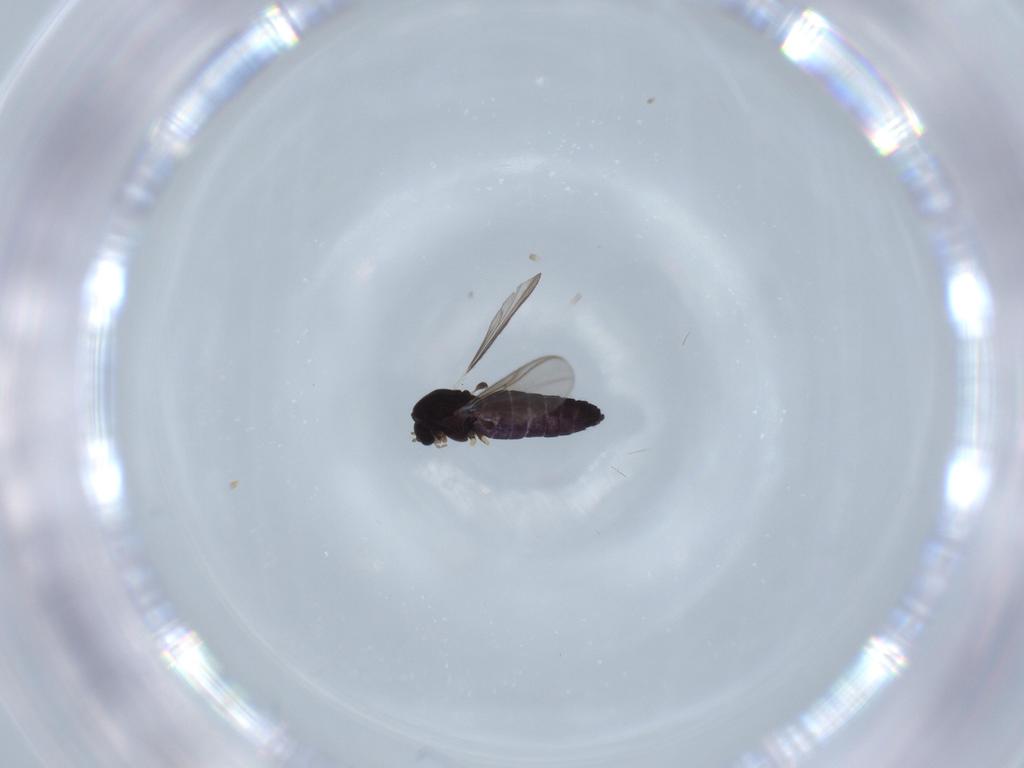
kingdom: Animalia
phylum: Arthropoda
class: Insecta
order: Diptera
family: Chironomidae
